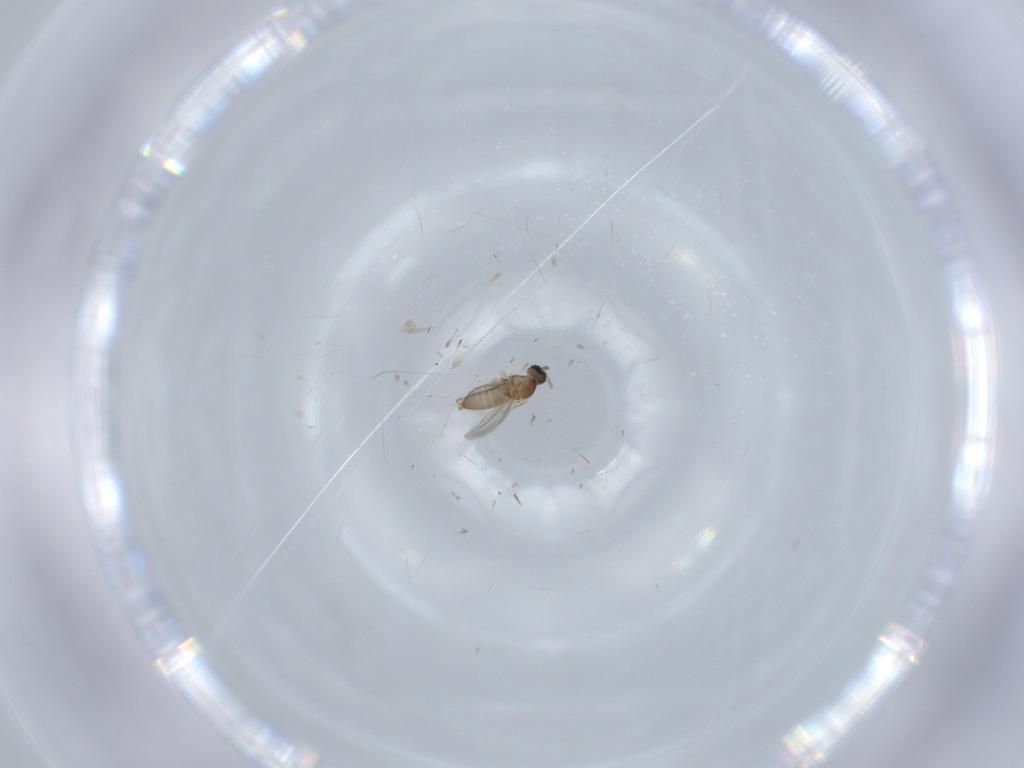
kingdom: Animalia
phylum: Arthropoda
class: Insecta
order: Diptera
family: Cecidomyiidae
